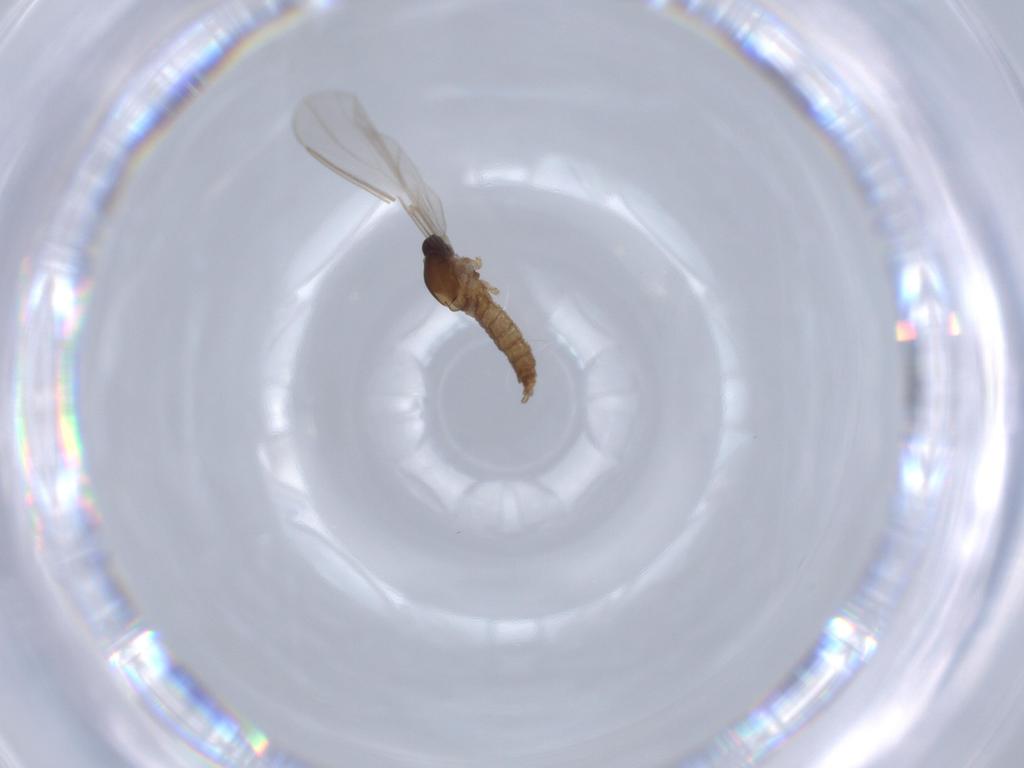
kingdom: Animalia
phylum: Arthropoda
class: Insecta
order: Diptera
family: Cecidomyiidae
